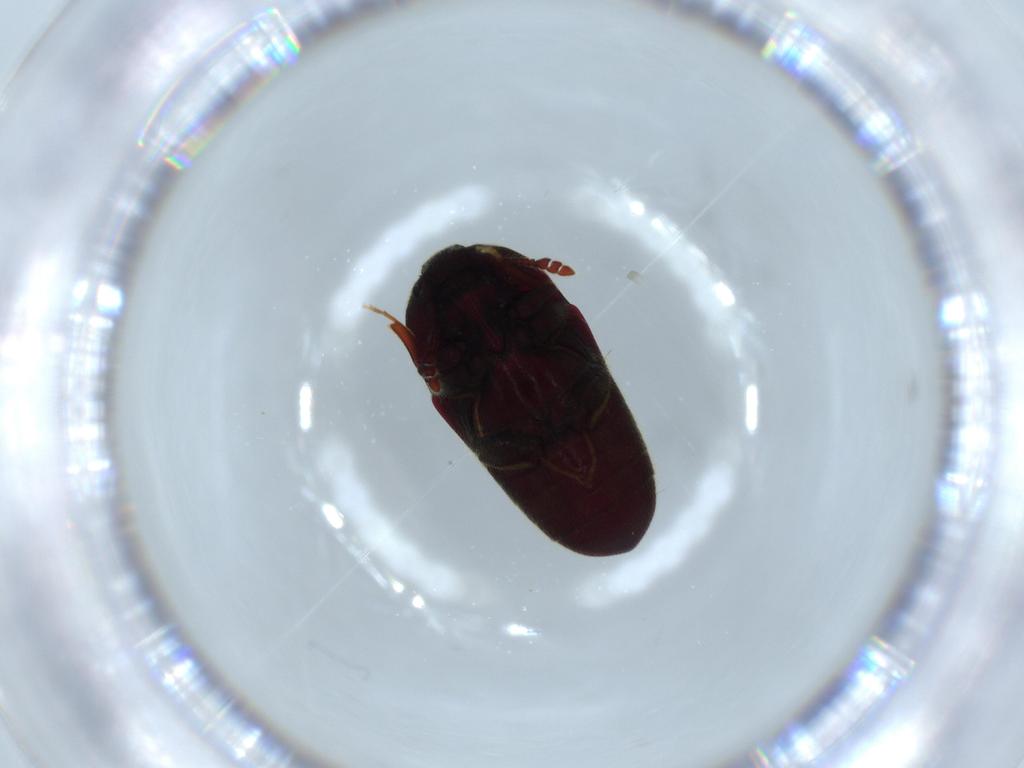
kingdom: Animalia
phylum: Arthropoda
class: Insecta
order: Coleoptera
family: Throscidae
